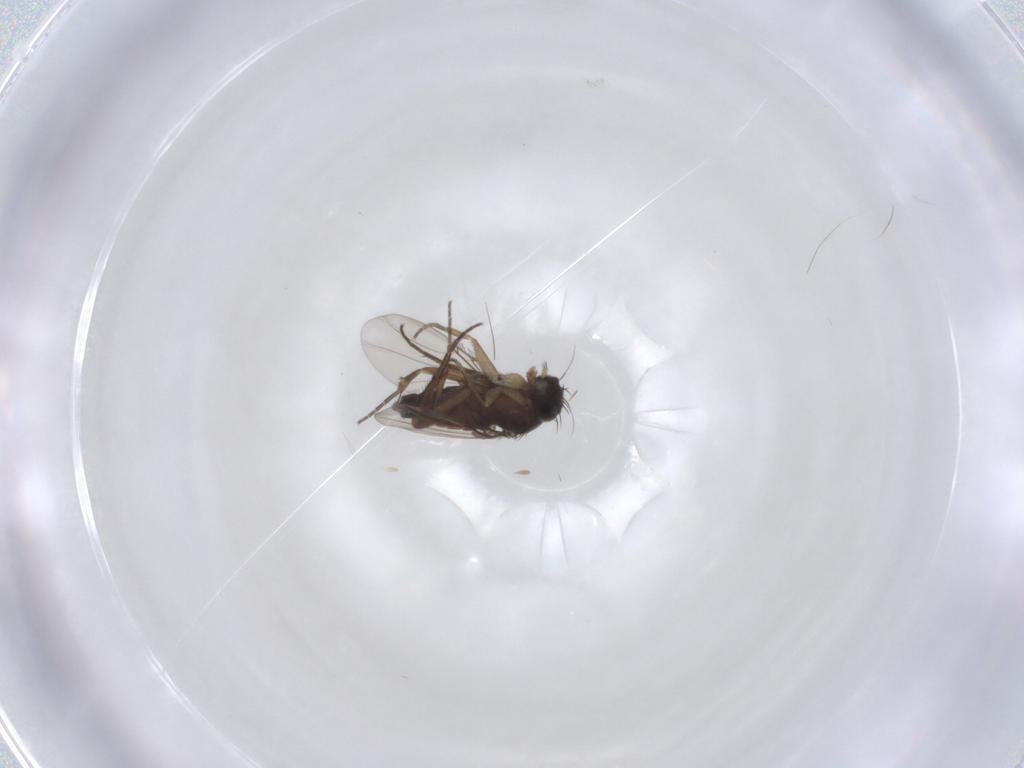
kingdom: Animalia
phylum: Arthropoda
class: Insecta
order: Diptera
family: Phoridae
